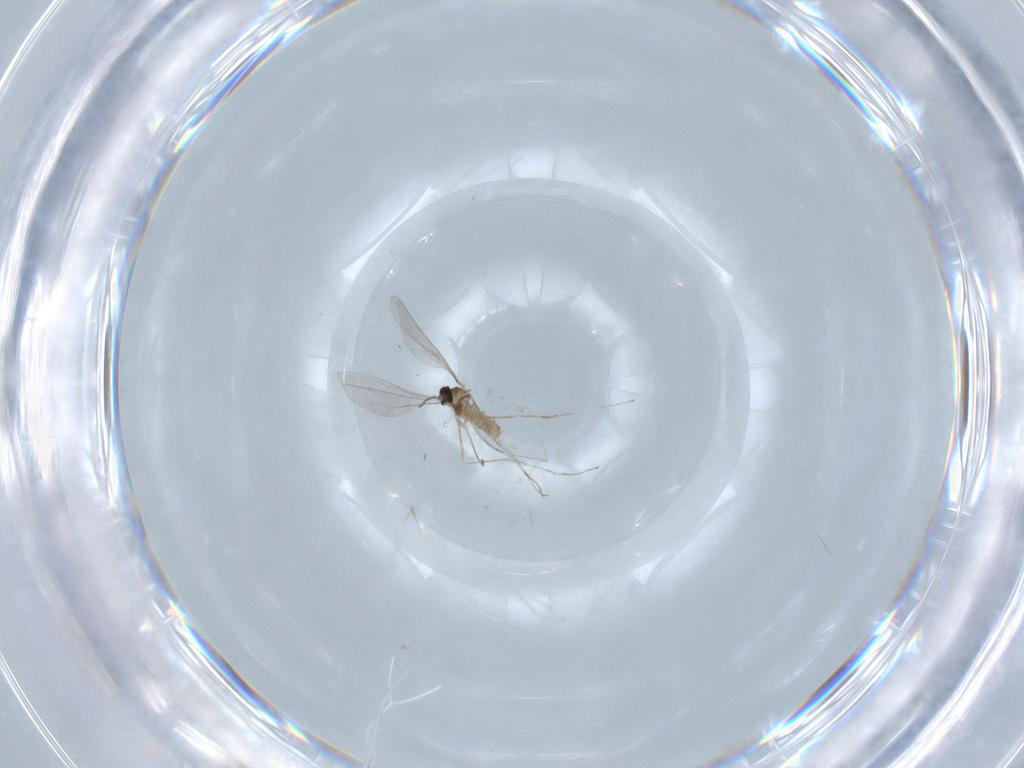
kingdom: Animalia
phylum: Arthropoda
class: Insecta
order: Diptera
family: Cecidomyiidae
